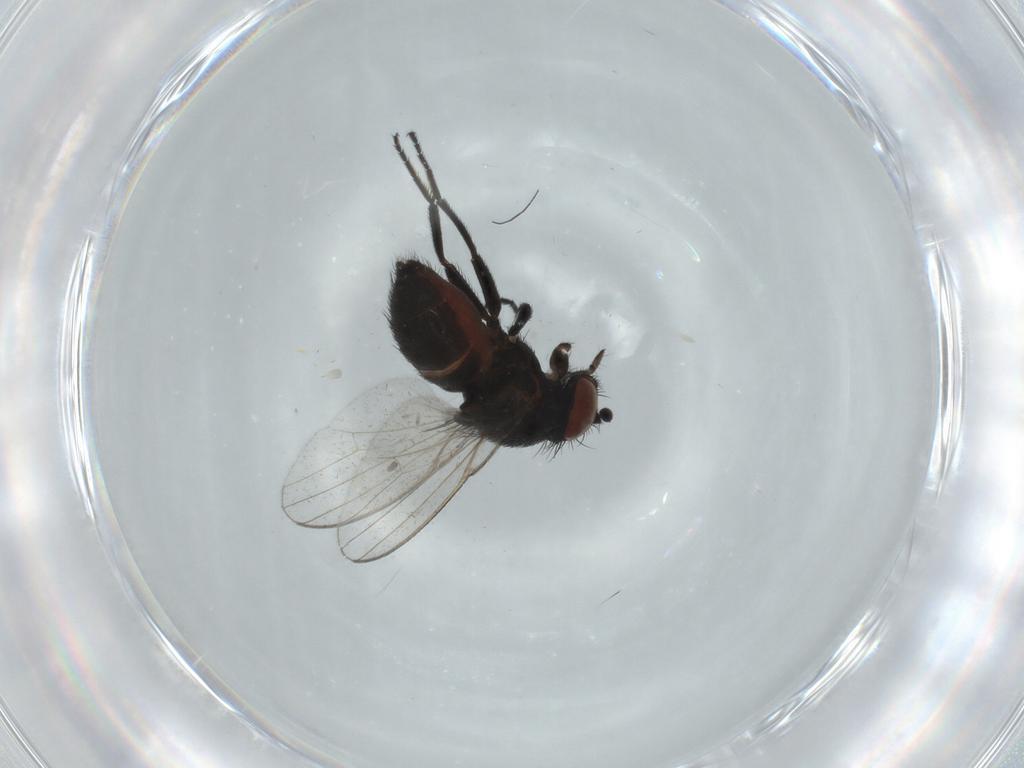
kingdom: Animalia
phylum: Arthropoda
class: Insecta
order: Diptera
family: Milichiidae
